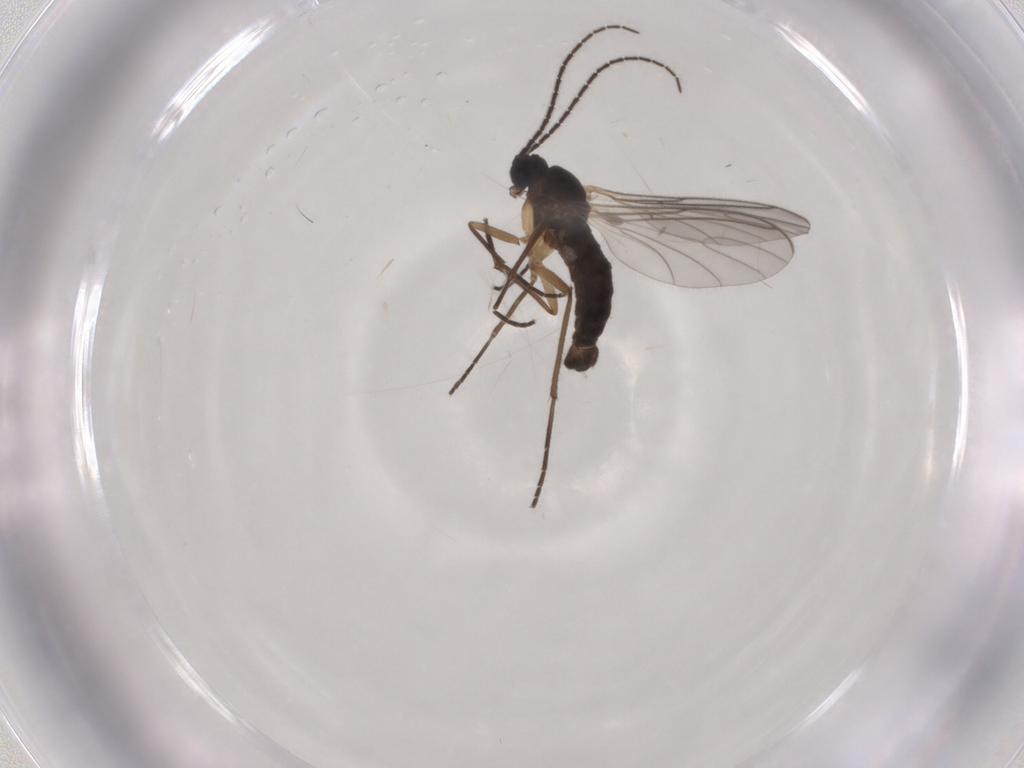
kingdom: Animalia
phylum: Arthropoda
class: Insecta
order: Diptera
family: Sciaridae
